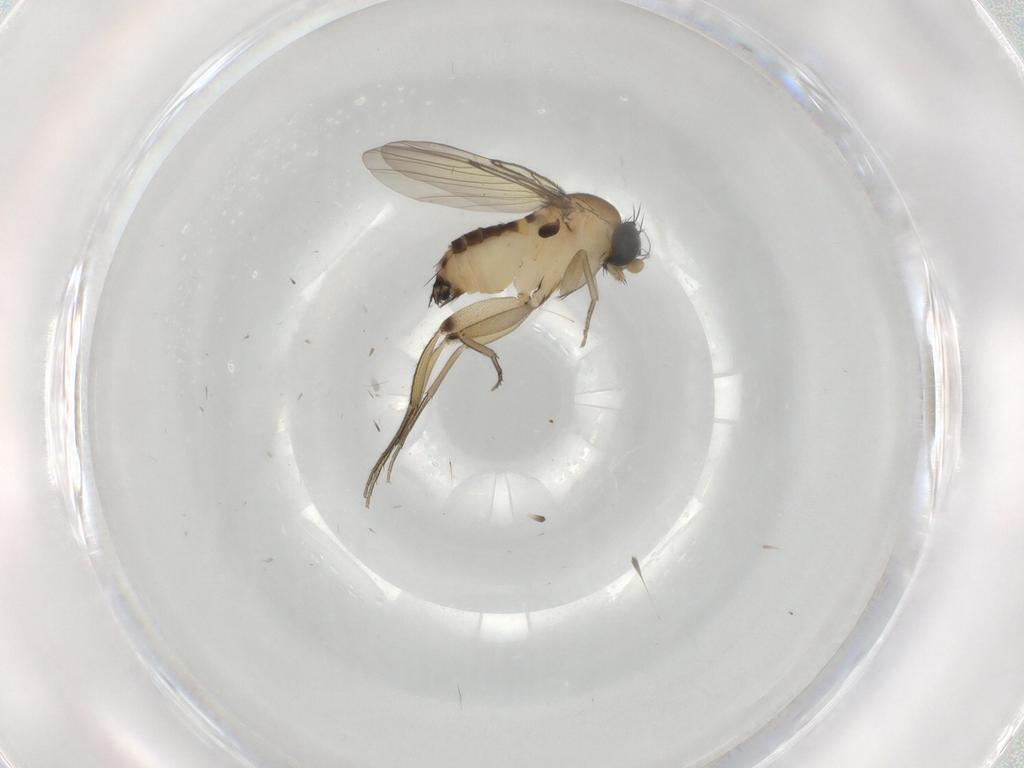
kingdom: Animalia
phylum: Arthropoda
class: Insecta
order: Diptera
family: Phoridae
